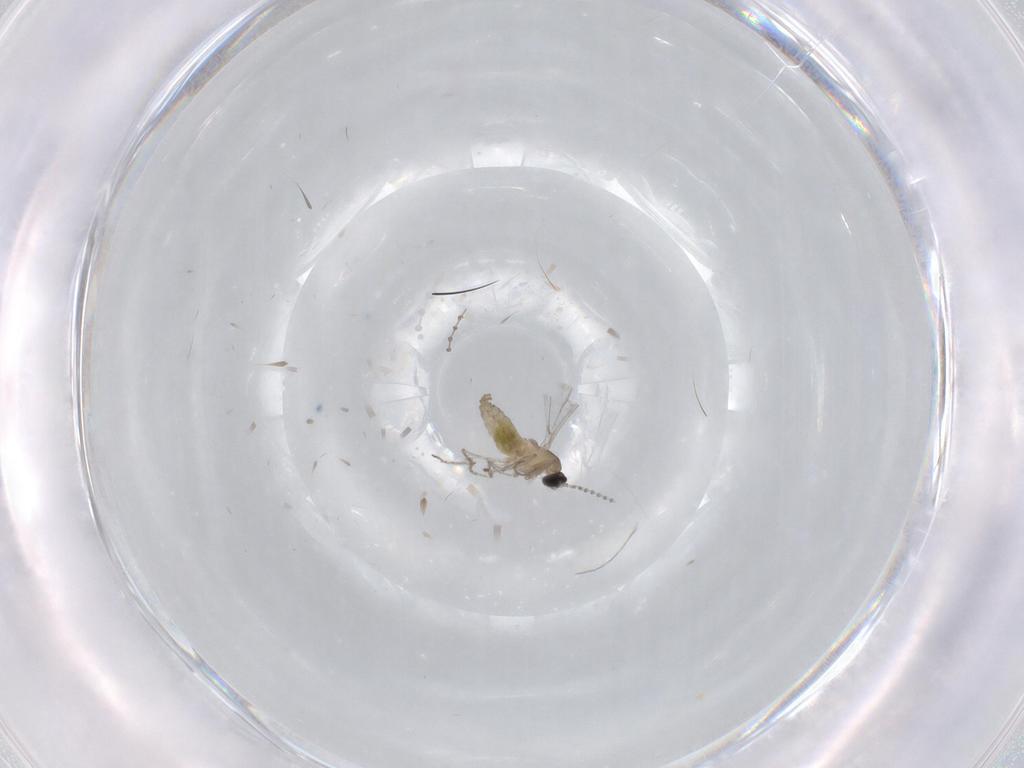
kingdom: Animalia
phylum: Arthropoda
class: Insecta
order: Diptera
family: Cecidomyiidae
